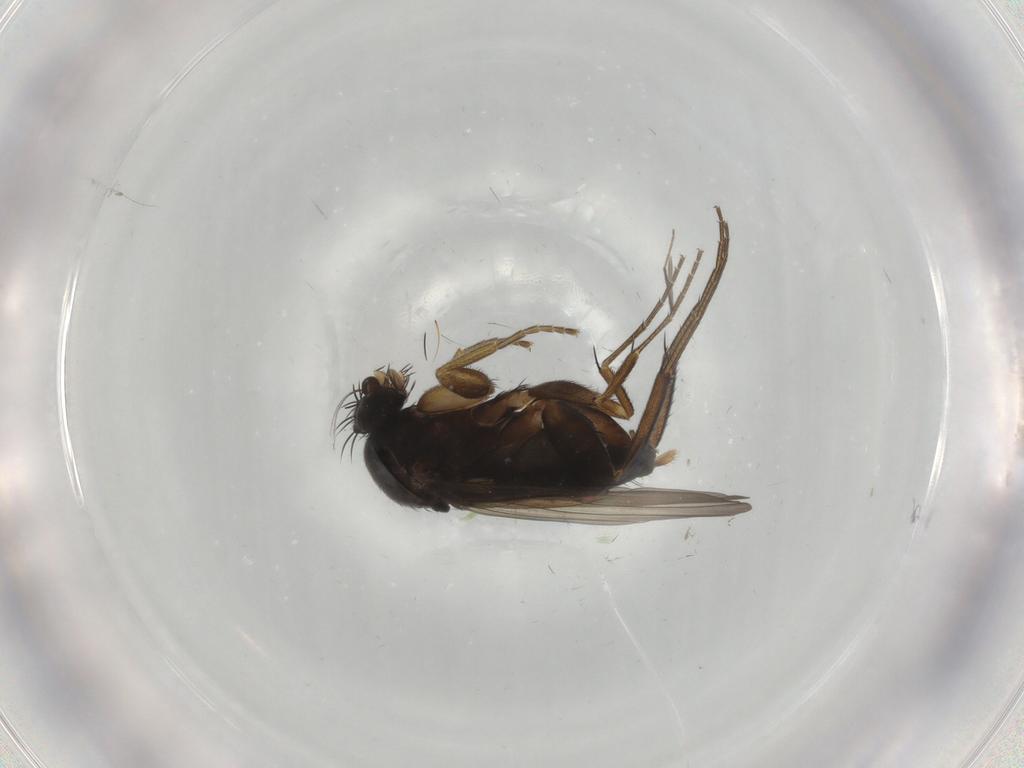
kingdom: Animalia
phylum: Arthropoda
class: Insecta
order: Diptera
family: Phoridae
